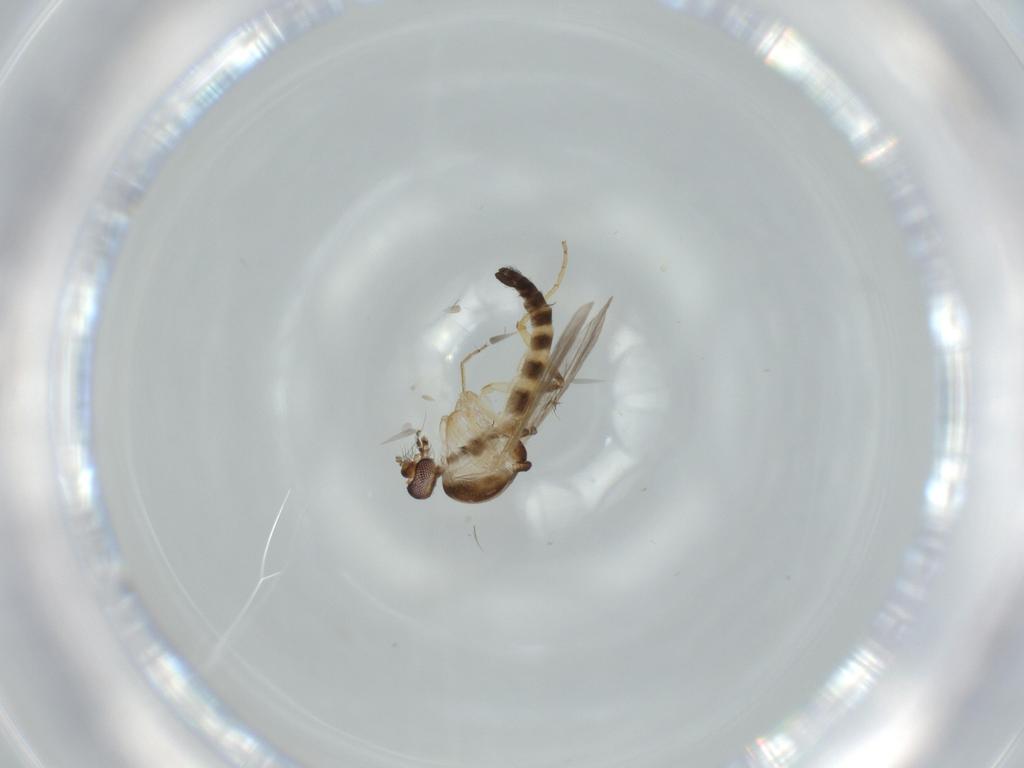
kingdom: Animalia
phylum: Arthropoda
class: Insecta
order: Diptera
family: Ceratopogonidae
